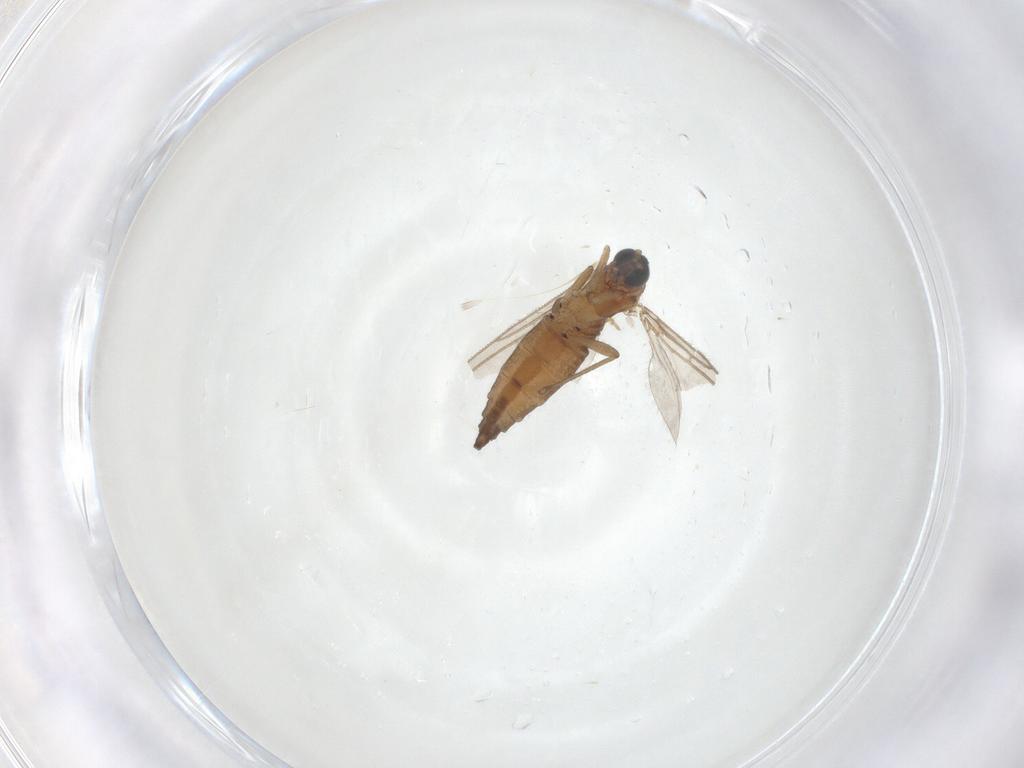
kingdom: Animalia
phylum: Arthropoda
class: Insecta
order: Diptera
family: Sciaridae
